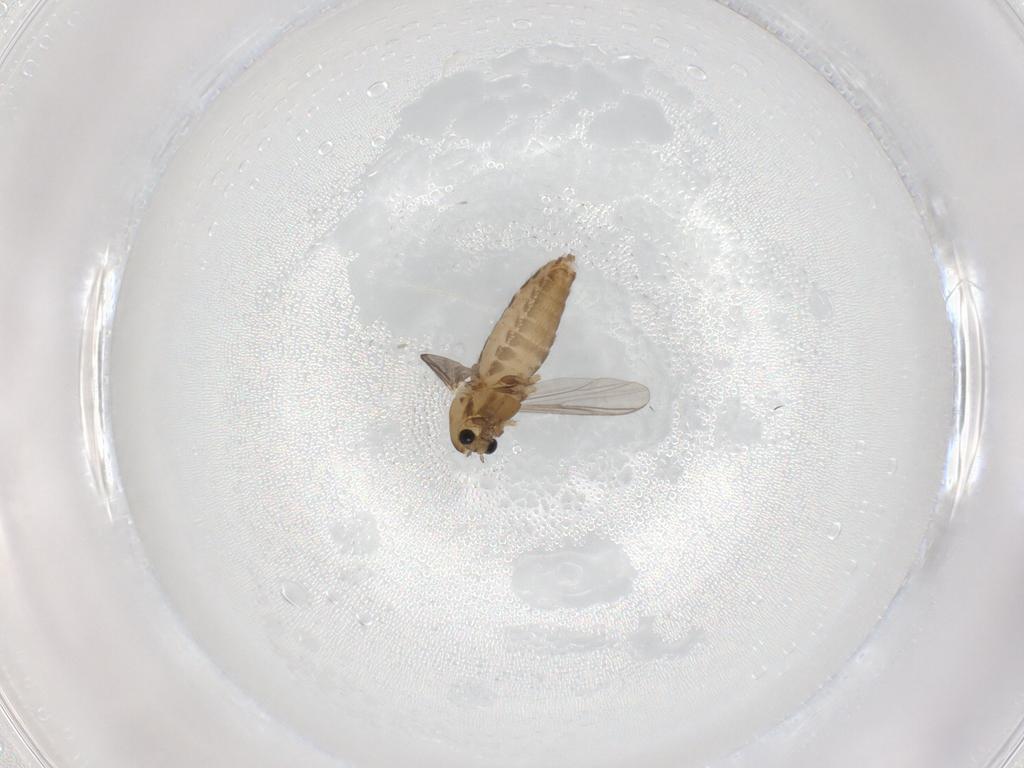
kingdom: Animalia
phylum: Arthropoda
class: Insecta
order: Diptera
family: Chironomidae
